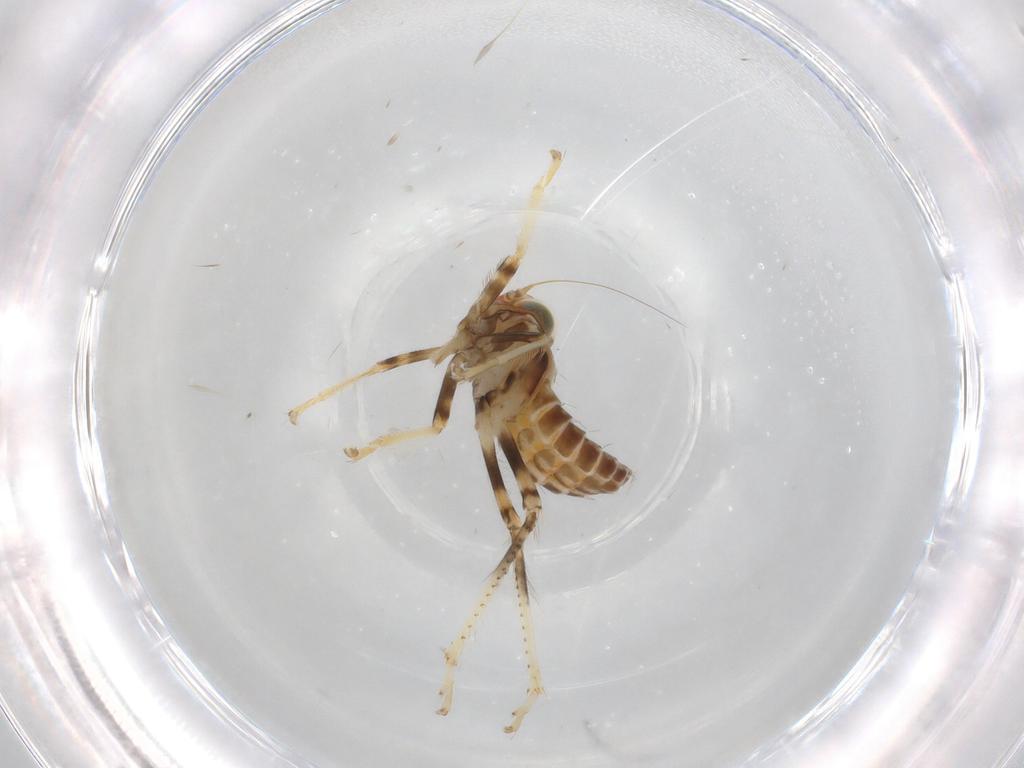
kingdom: Animalia
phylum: Arthropoda
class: Insecta
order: Hemiptera
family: Cicadellidae
